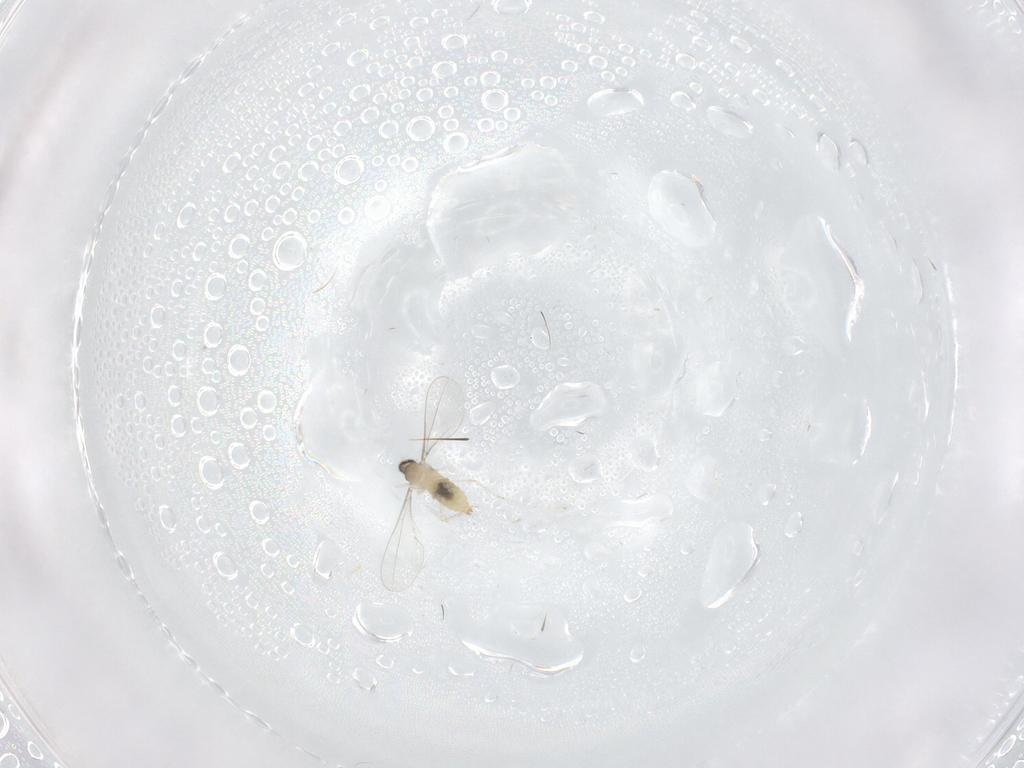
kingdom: Animalia
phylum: Arthropoda
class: Insecta
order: Diptera
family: Cecidomyiidae
